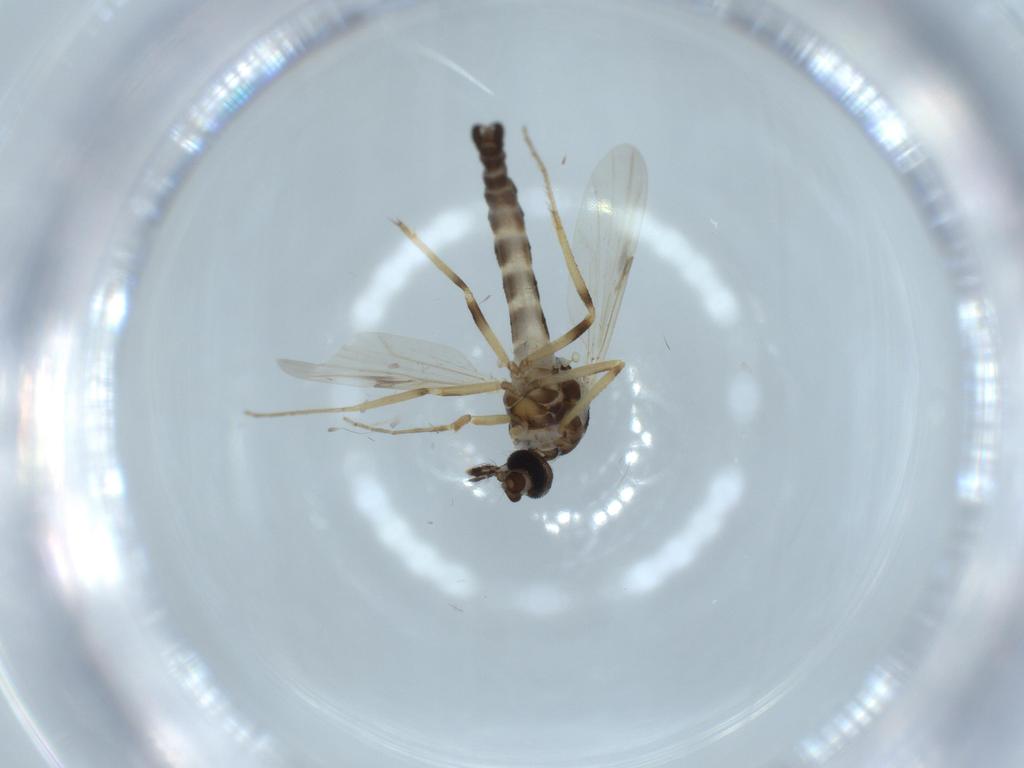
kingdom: Animalia
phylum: Arthropoda
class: Insecta
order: Diptera
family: Ceratopogonidae
